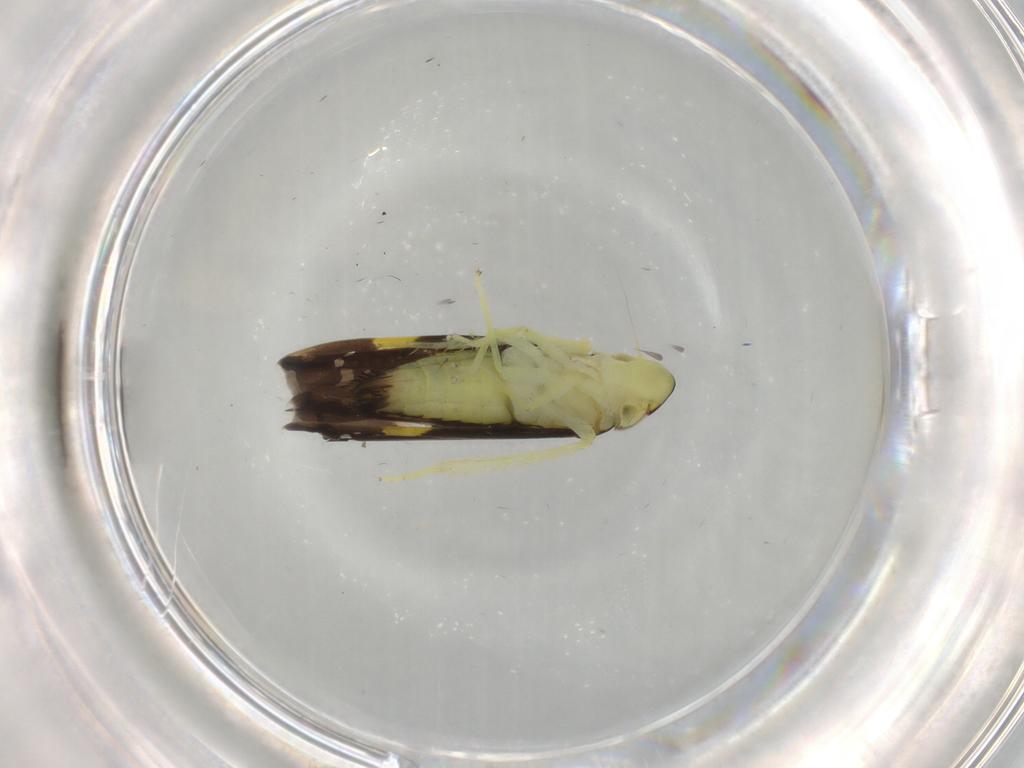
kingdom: Animalia
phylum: Arthropoda
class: Insecta
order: Hemiptera
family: Cicadellidae
